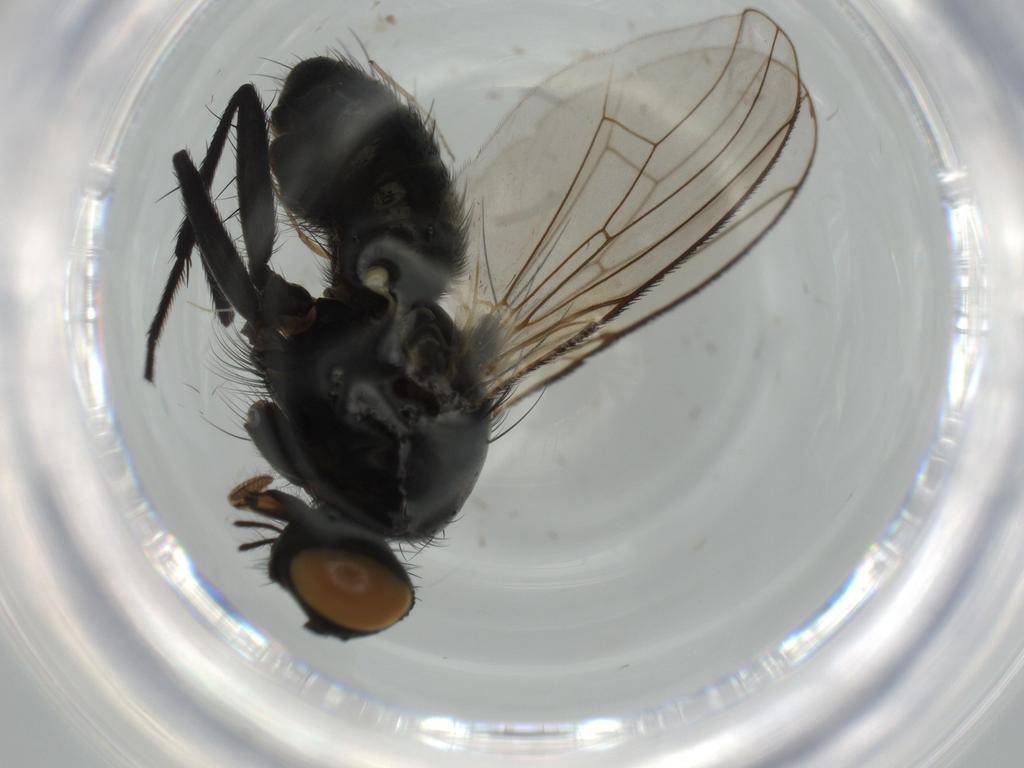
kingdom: Animalia
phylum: Arthropoda
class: Insecta
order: Diptera
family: Psychodidae
